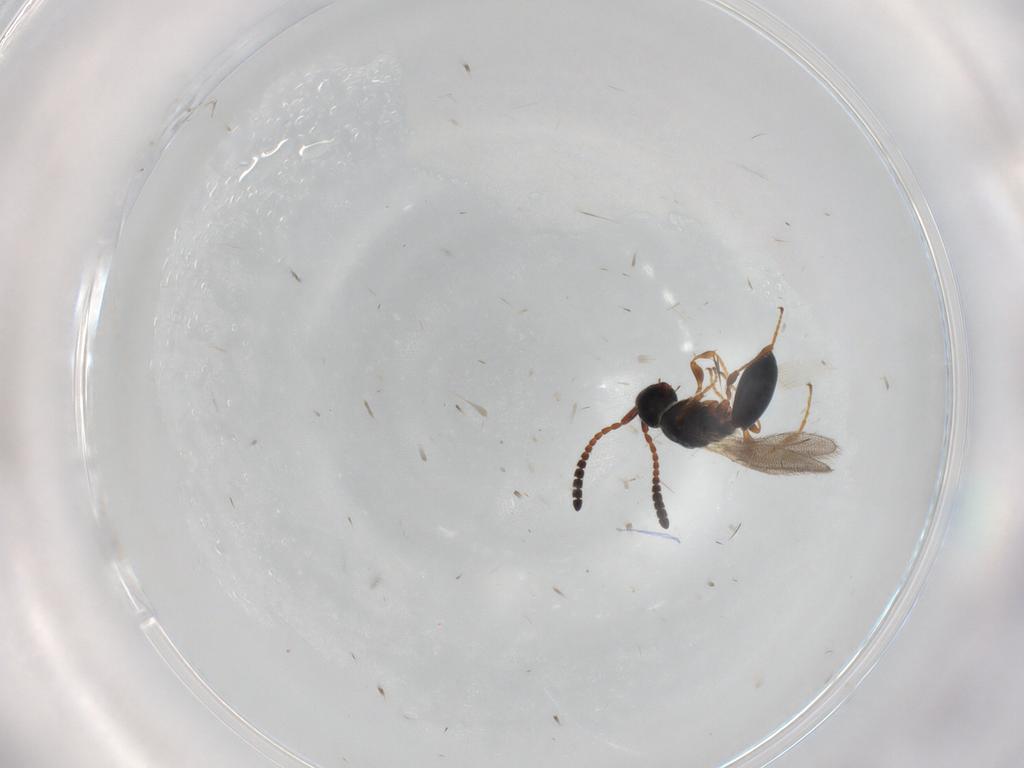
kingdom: Animalia
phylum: Arthropoda
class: Insecta
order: Hymenoptera
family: Diapriidae
